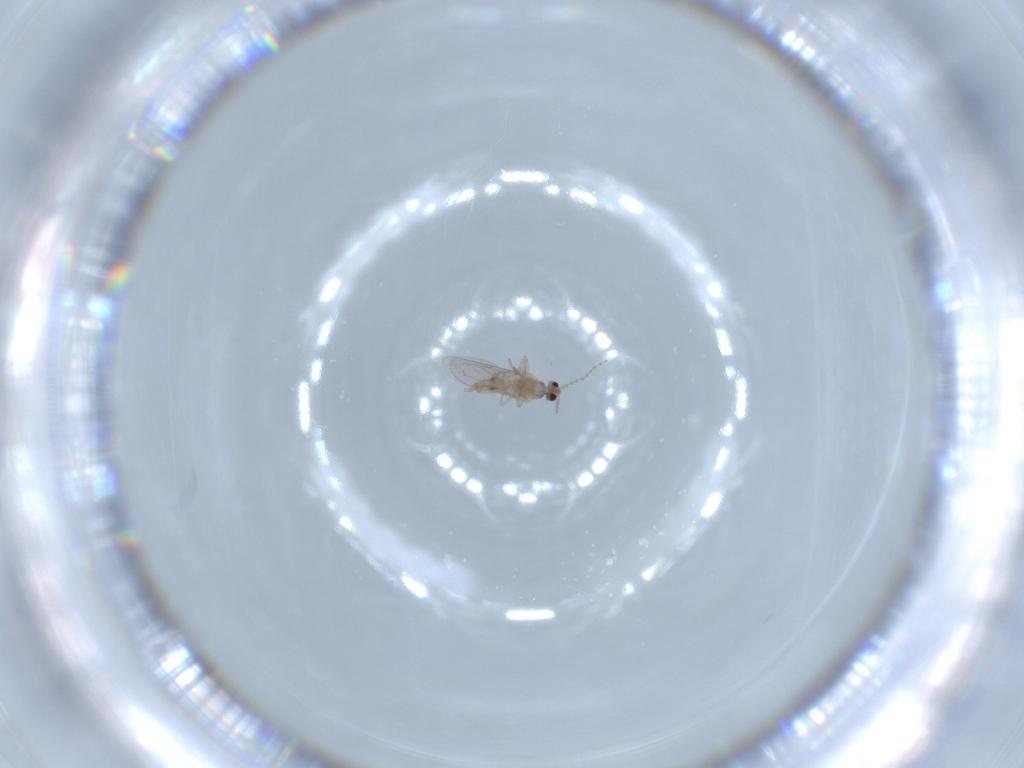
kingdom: Animalia
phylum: Arthropoda
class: Insecta
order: Diptera
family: Cecidomyiidae
